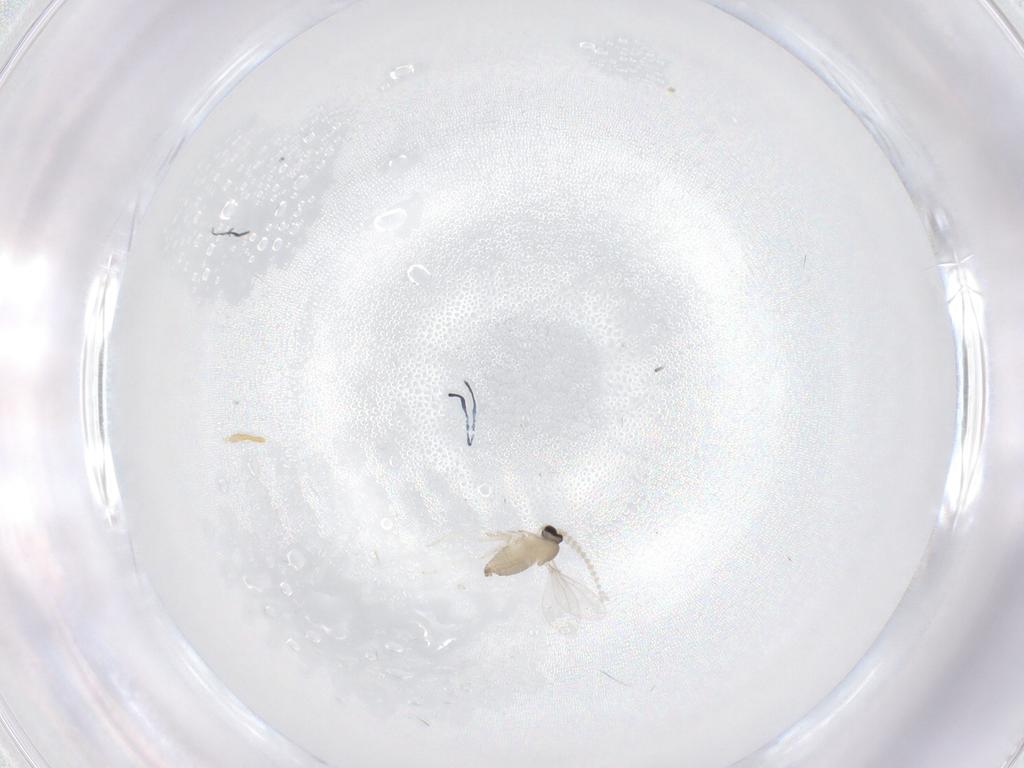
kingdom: Animalia
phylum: Arthropoda
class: Insecta
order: Diptera
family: Cecidomyiidae
